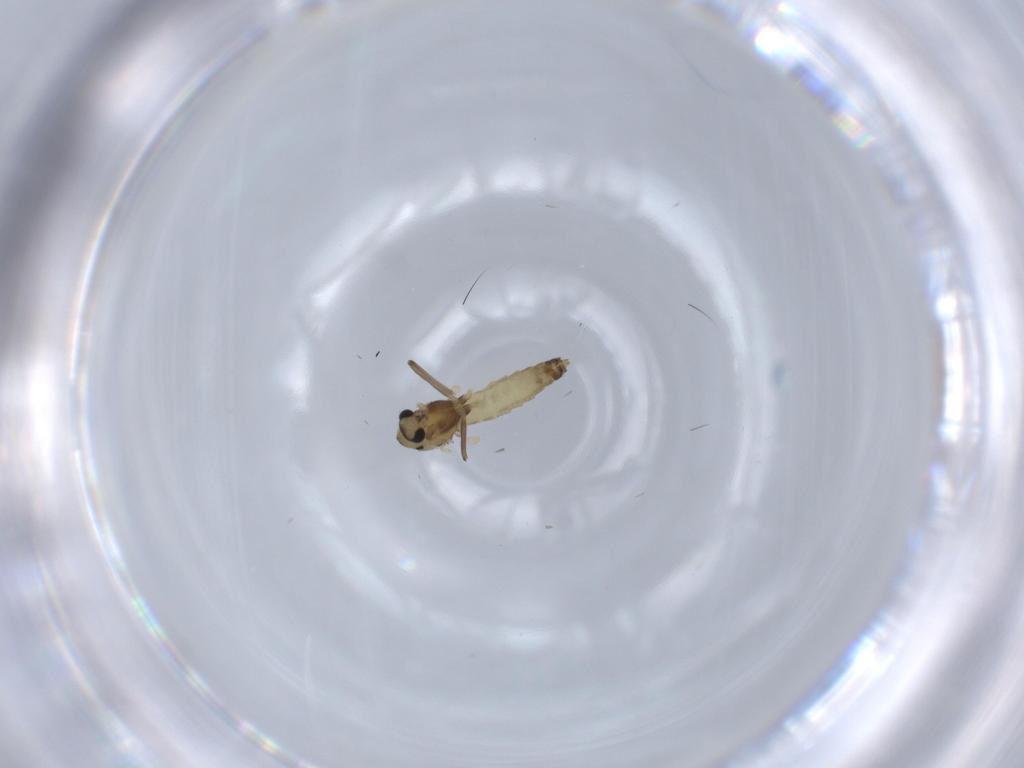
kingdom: Animalia
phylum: Arthropoda
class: Insecta
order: Diptera
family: Chironomidae
